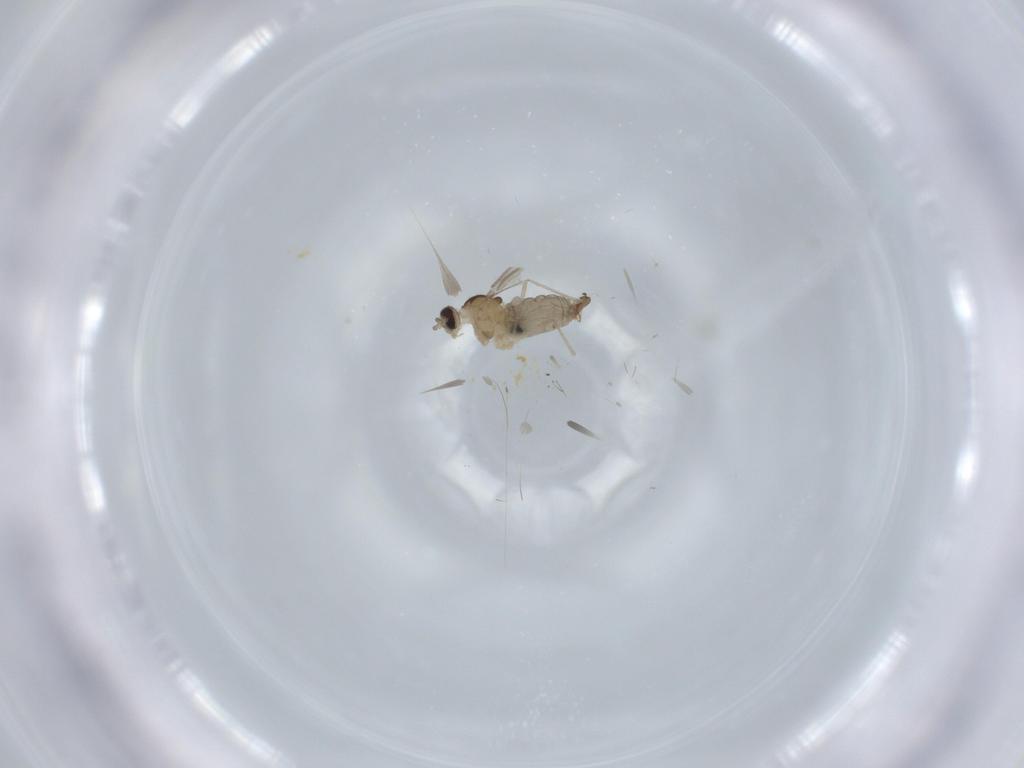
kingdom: Animalia
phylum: Arthropoda
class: Insecta
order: Diptera
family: Cecidomyiidae
